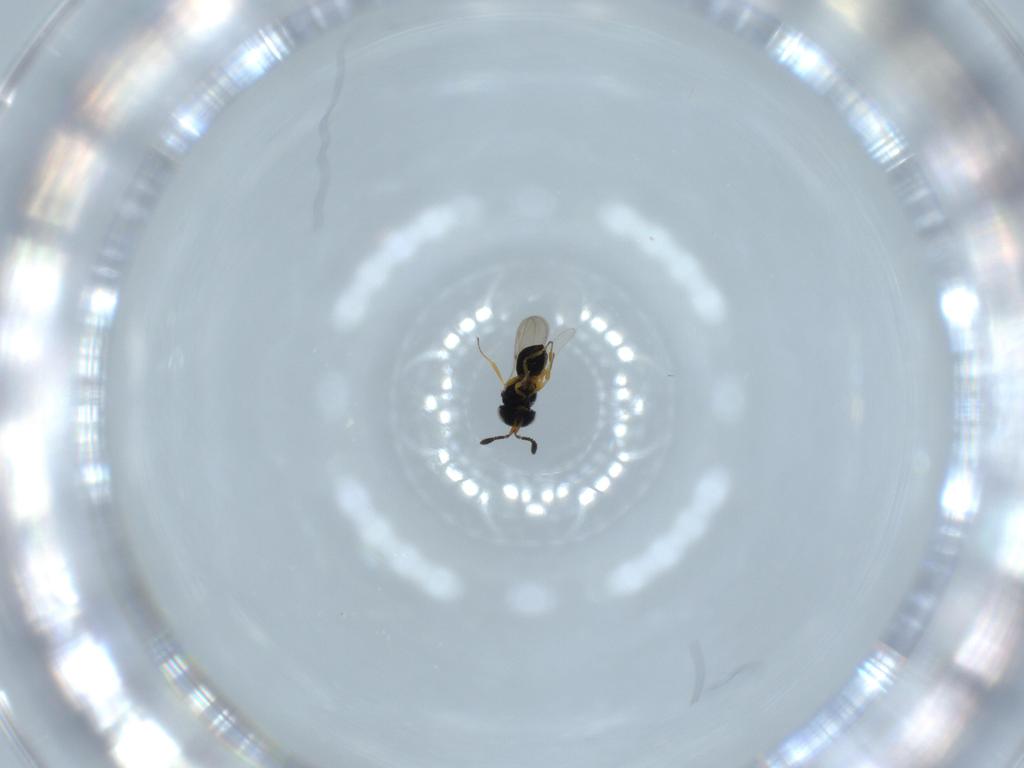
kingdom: Animalia
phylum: Arthropoda
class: Insecta
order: Hymenoptera
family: Scelionidae
